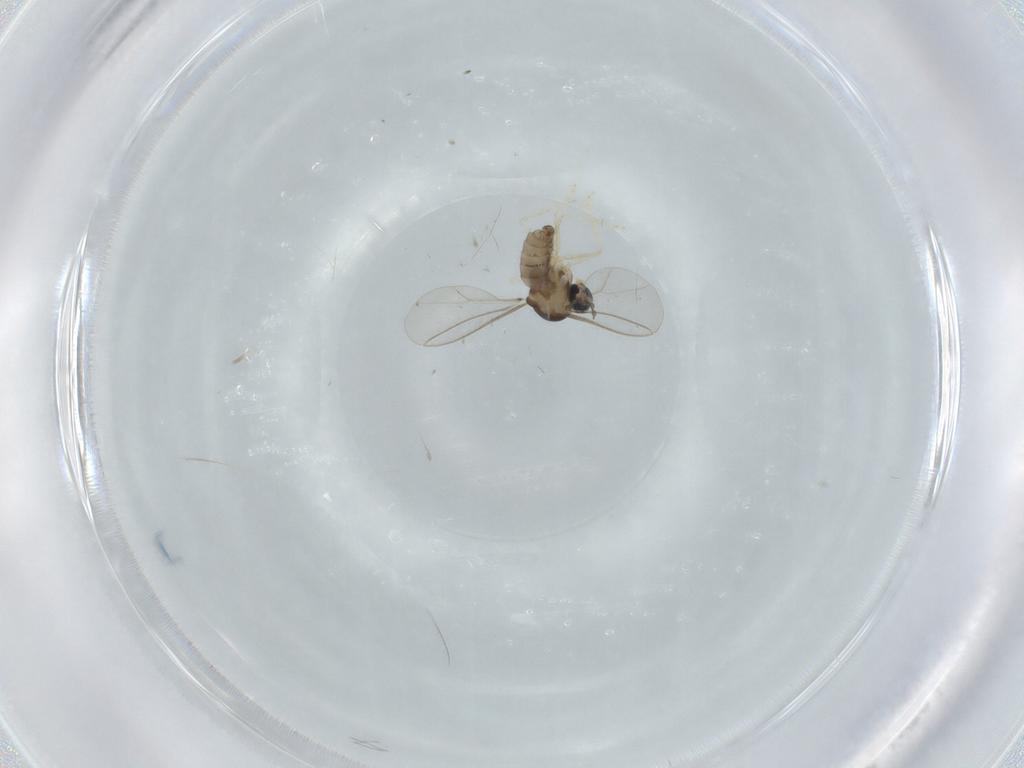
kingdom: Animalia
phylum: Arthropoda
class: Insecta
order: Diptera
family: Cecidomyiidae
